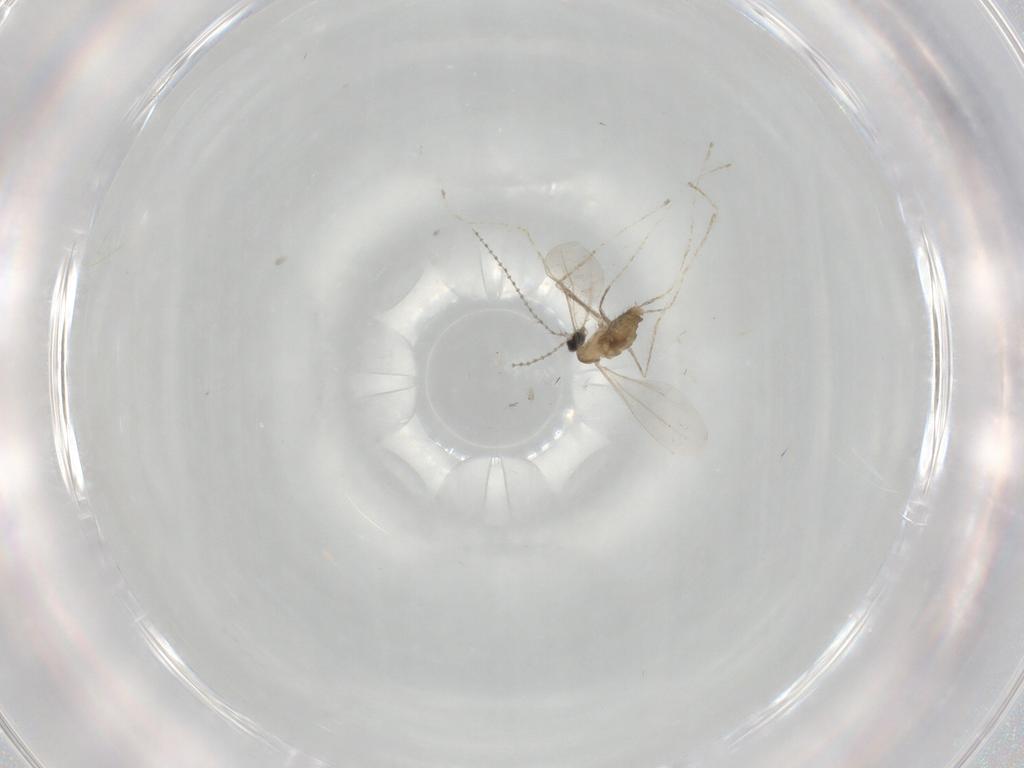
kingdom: Animalia
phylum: Arthropoda
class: Insecta
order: Diptera
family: Cecidomyiidae
